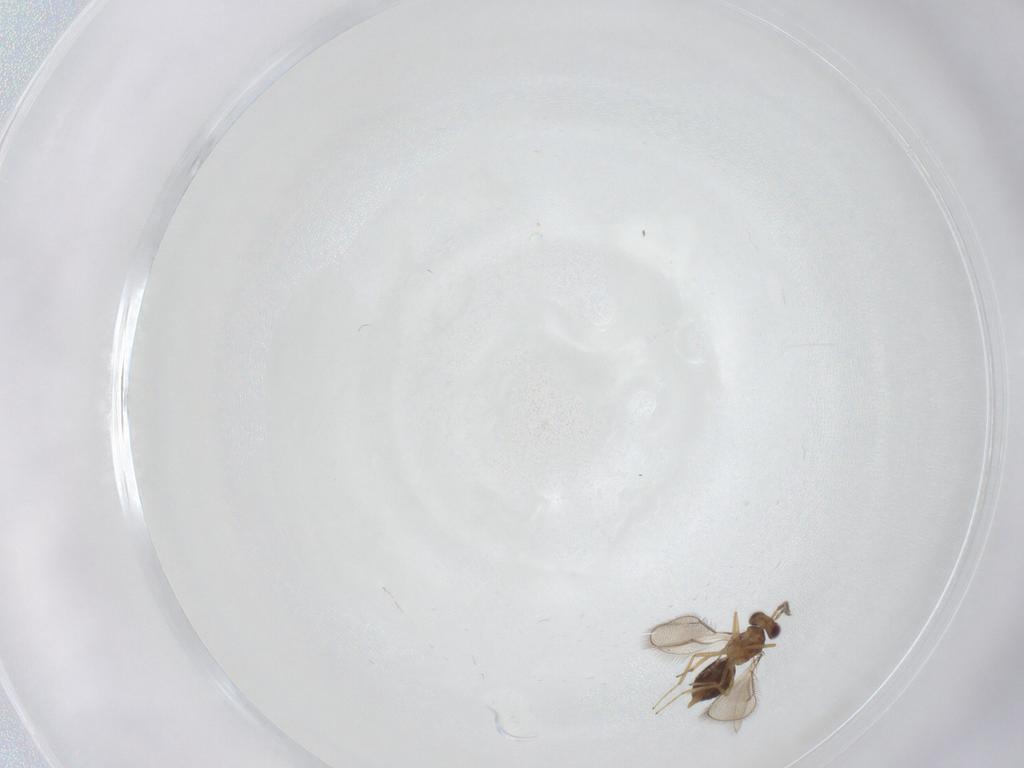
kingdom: Animalia
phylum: Arthropoda
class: Insecta
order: Hymenoptera
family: Eulophidae
